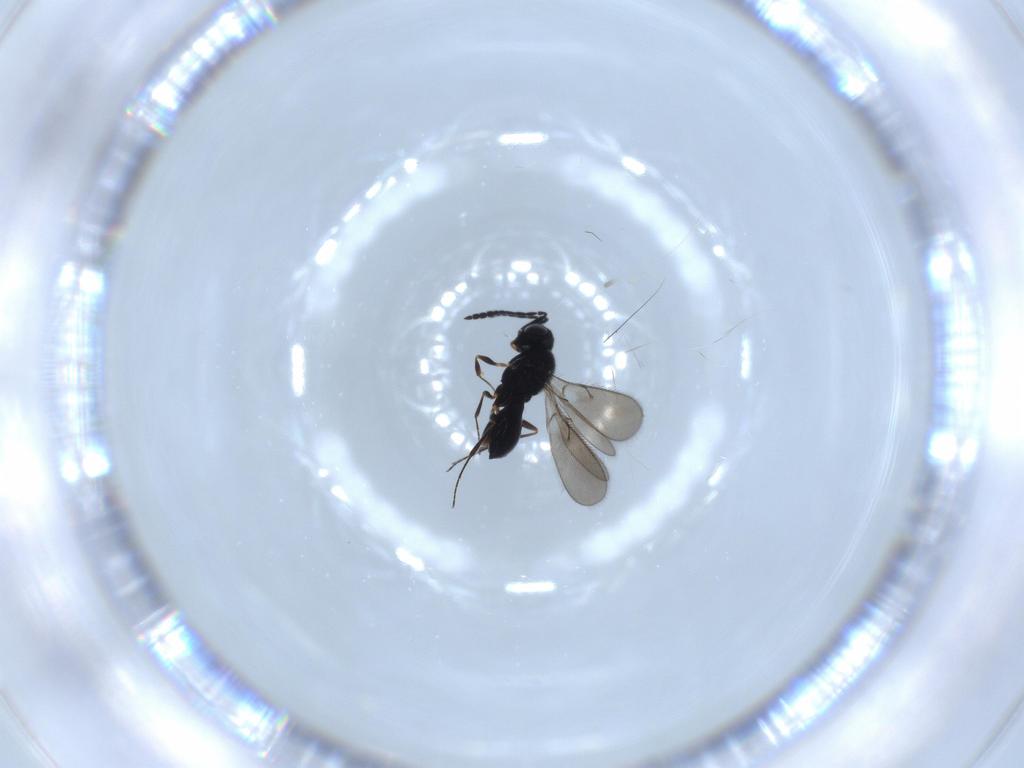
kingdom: Animalia
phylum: Arthropoda
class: Insecta
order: Hymenoptera
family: Scelionidae
